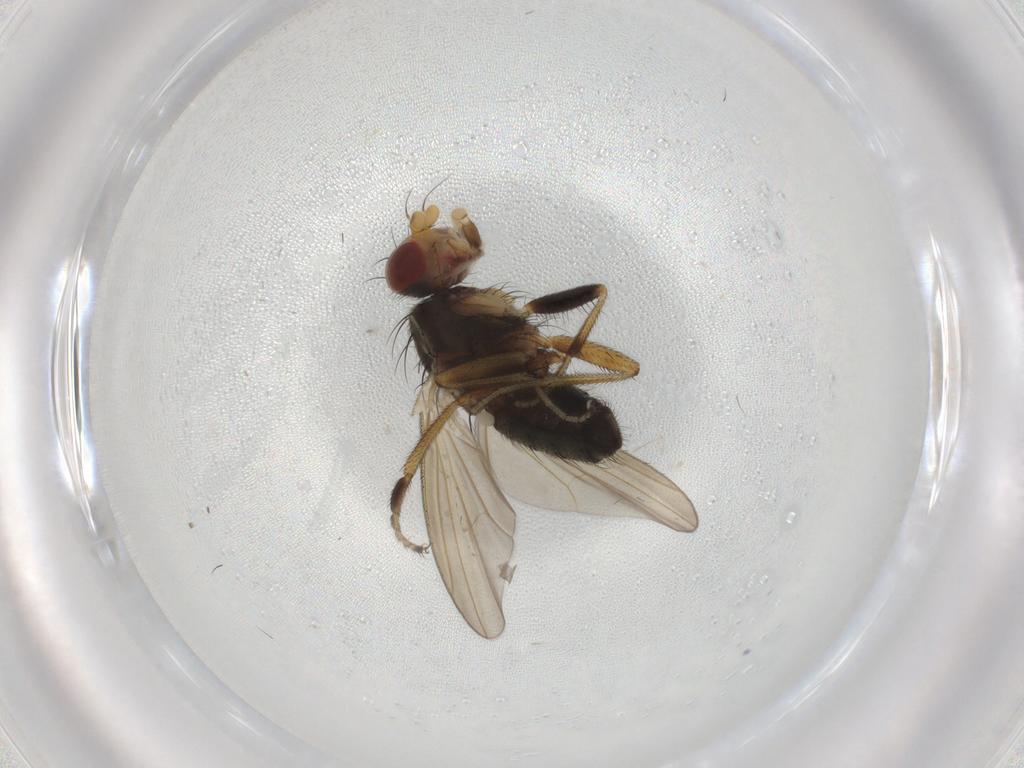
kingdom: Animalia
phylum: Arthropoda
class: Insecta
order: Diptera
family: Ulidiidae
